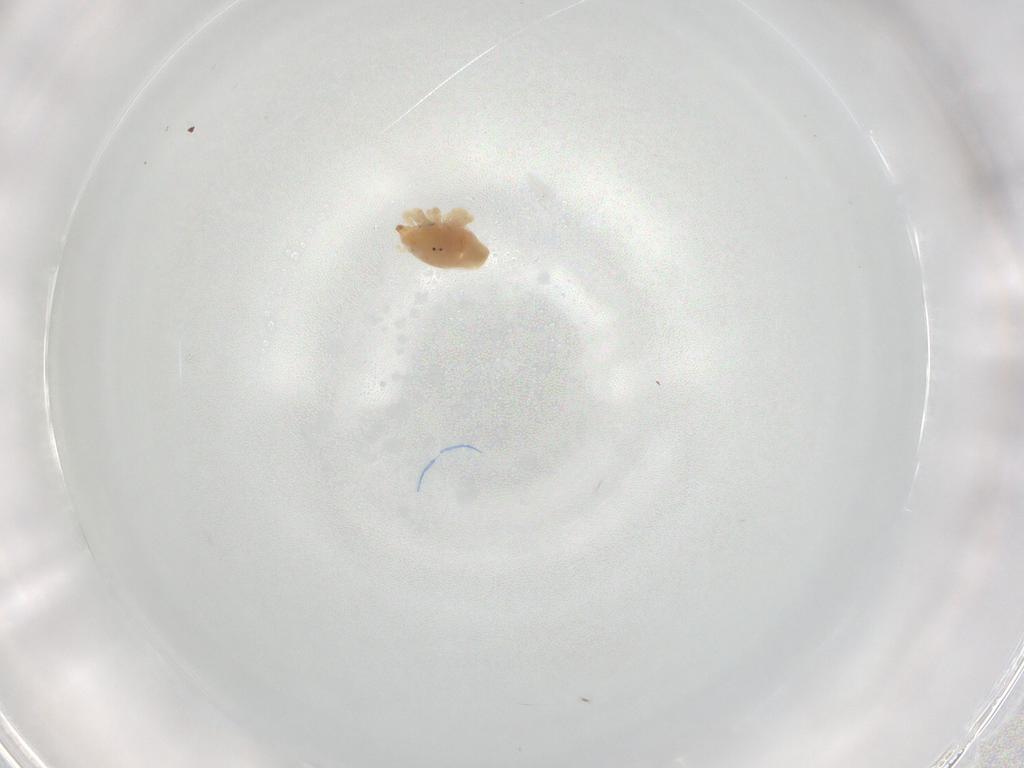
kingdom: Animalia
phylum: Arthropoda
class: Arachnida
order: Trombidiformes
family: Bdellidae
